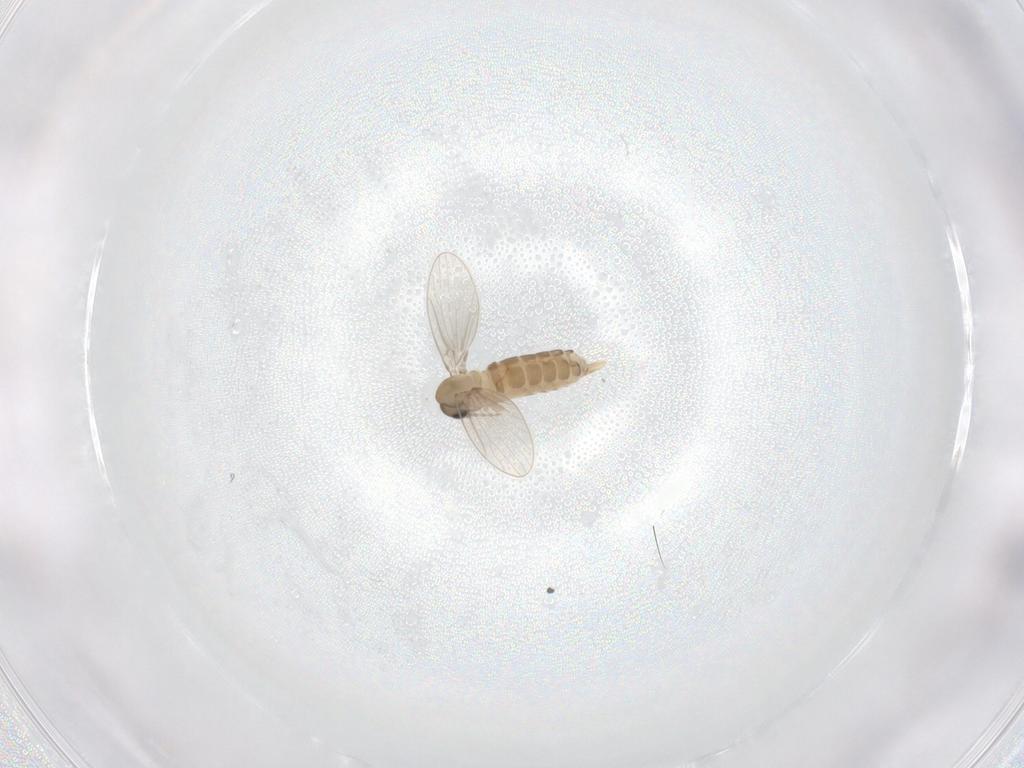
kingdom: Animalia
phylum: Arthropoda
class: Insecta
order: Diptera
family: Psychodidae
